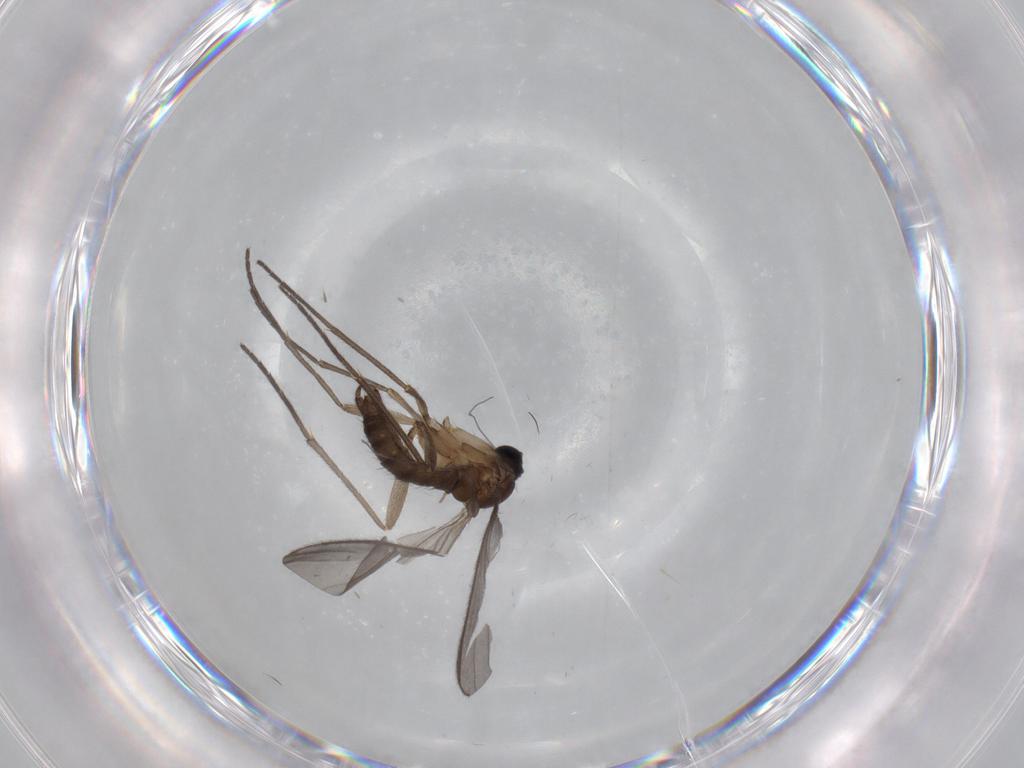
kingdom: Animalia
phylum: Arthropoda
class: Insecta
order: Diptera
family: Sciaridae
